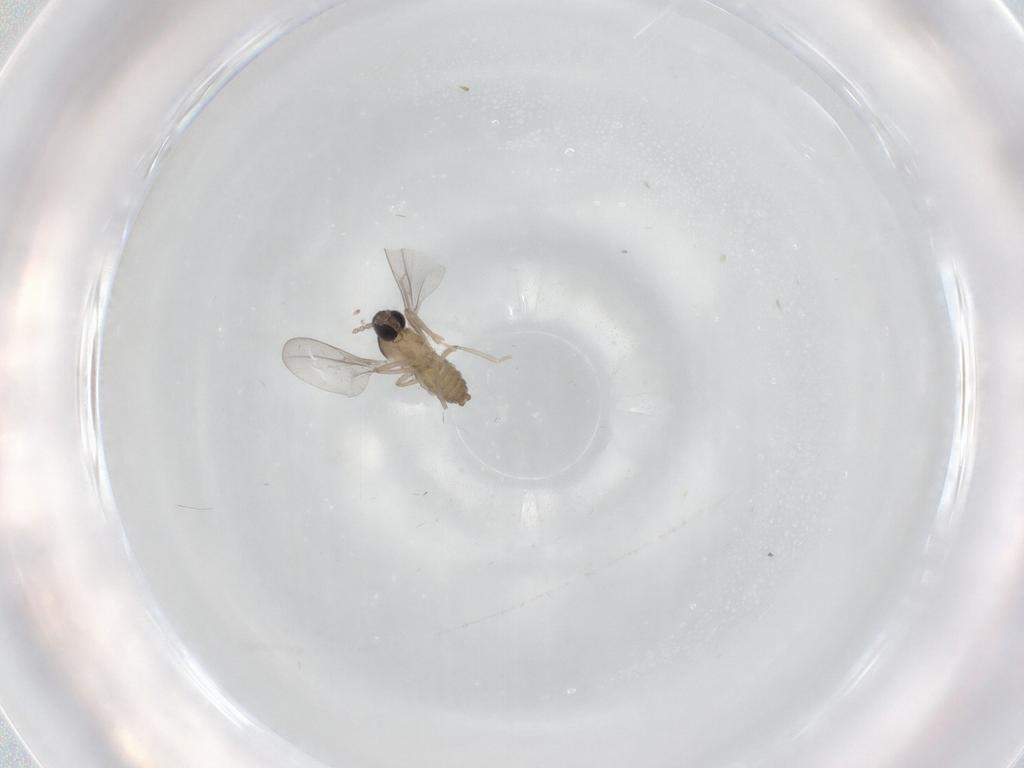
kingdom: Animalia
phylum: Arthropoda
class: Insecta
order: Diptera
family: Cecidomyiidae
